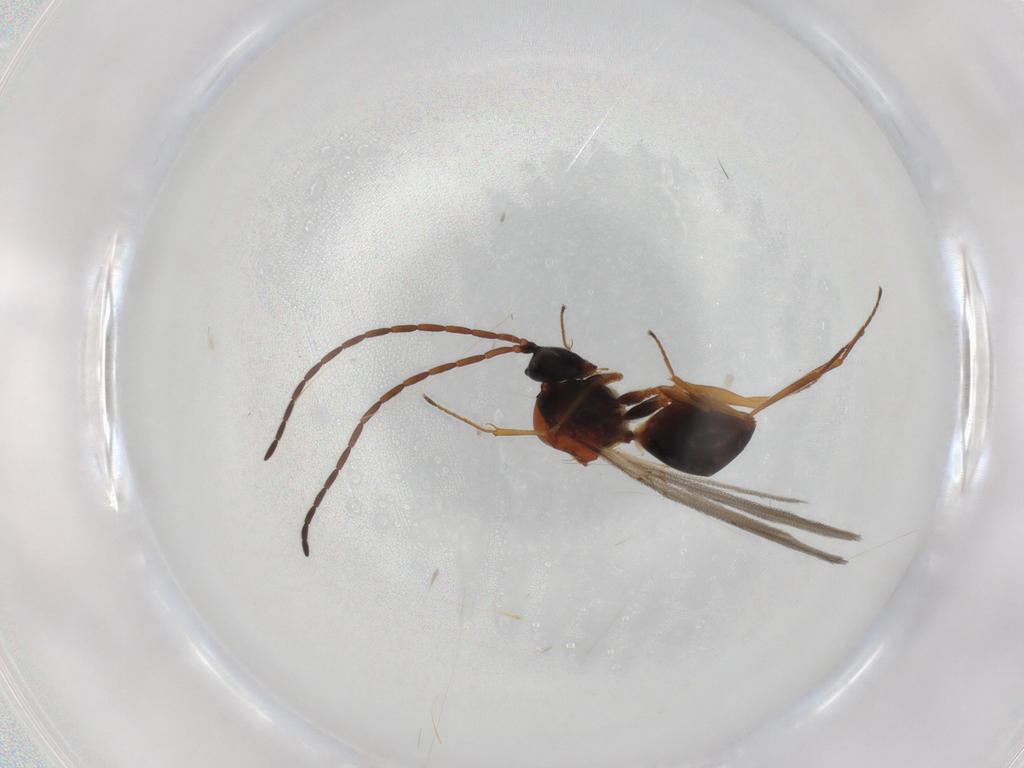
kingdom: Animalia
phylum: Arthropoda
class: Insecta
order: Hymenoptera
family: Figitidae
